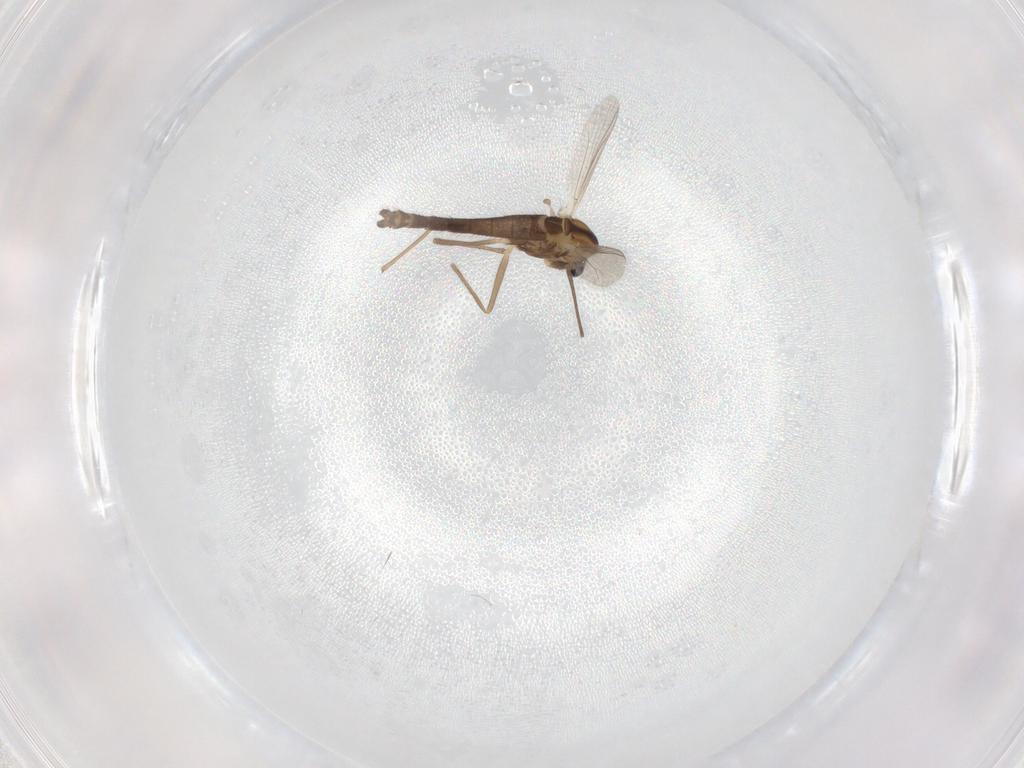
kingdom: Animalia
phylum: Arthropoda
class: Insecta
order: Diptera
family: Chironomidae
